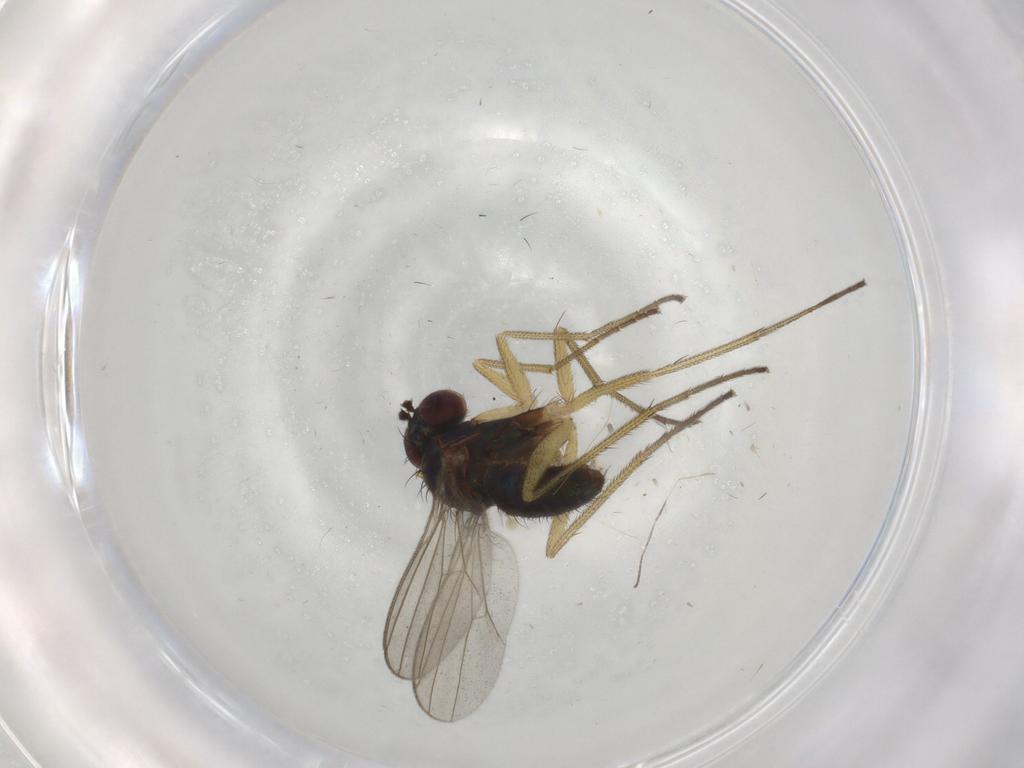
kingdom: Animalia
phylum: Arthropoda
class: Insecta
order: Diptera
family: Dolichopodidae
